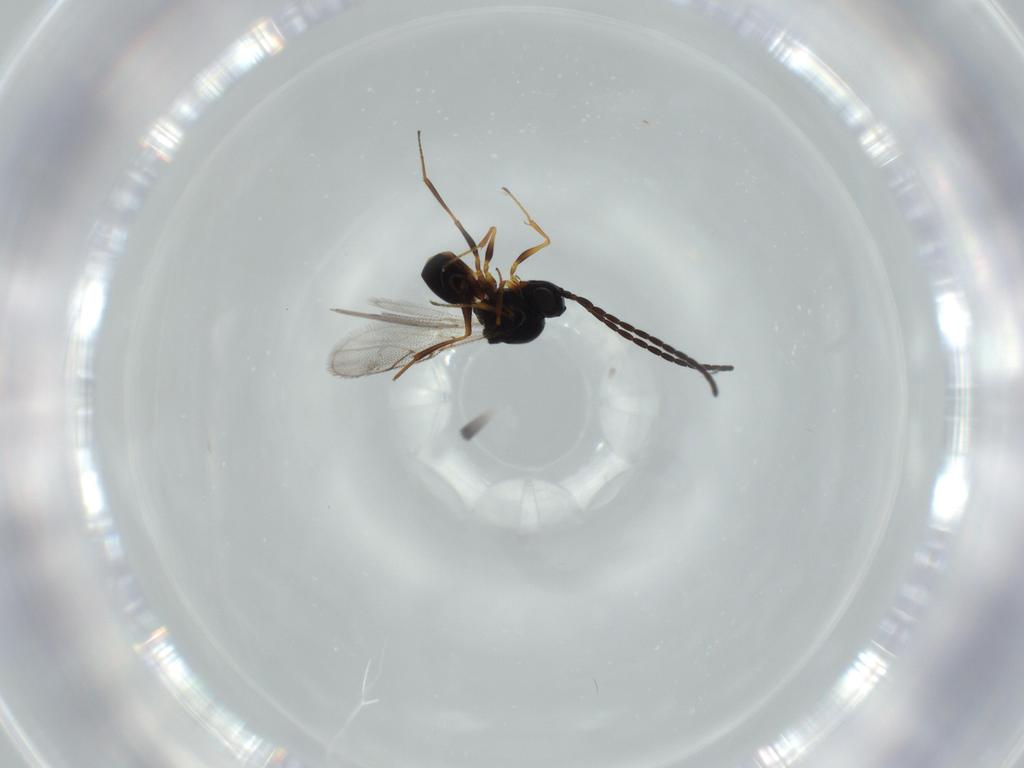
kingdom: Animalia
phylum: Arthropoda
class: Insecta
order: Hymenoptera
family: Figitidae
